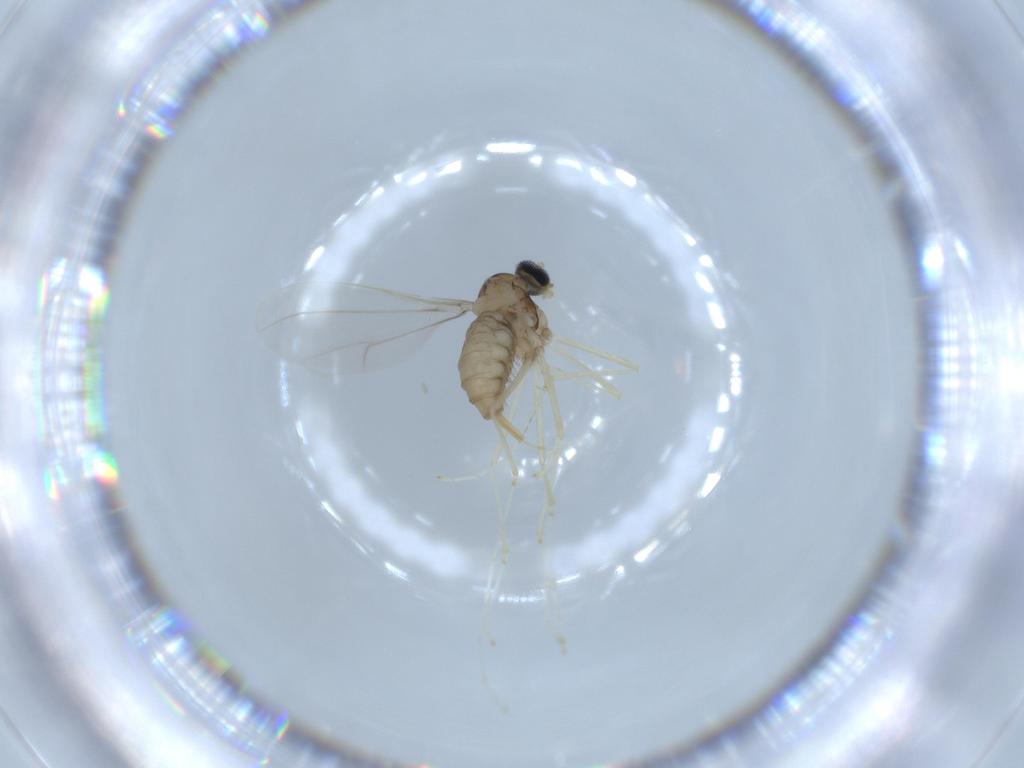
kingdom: Animalia
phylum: Arthropoda
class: Insecta
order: Diptera
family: Cecidomyiidae
